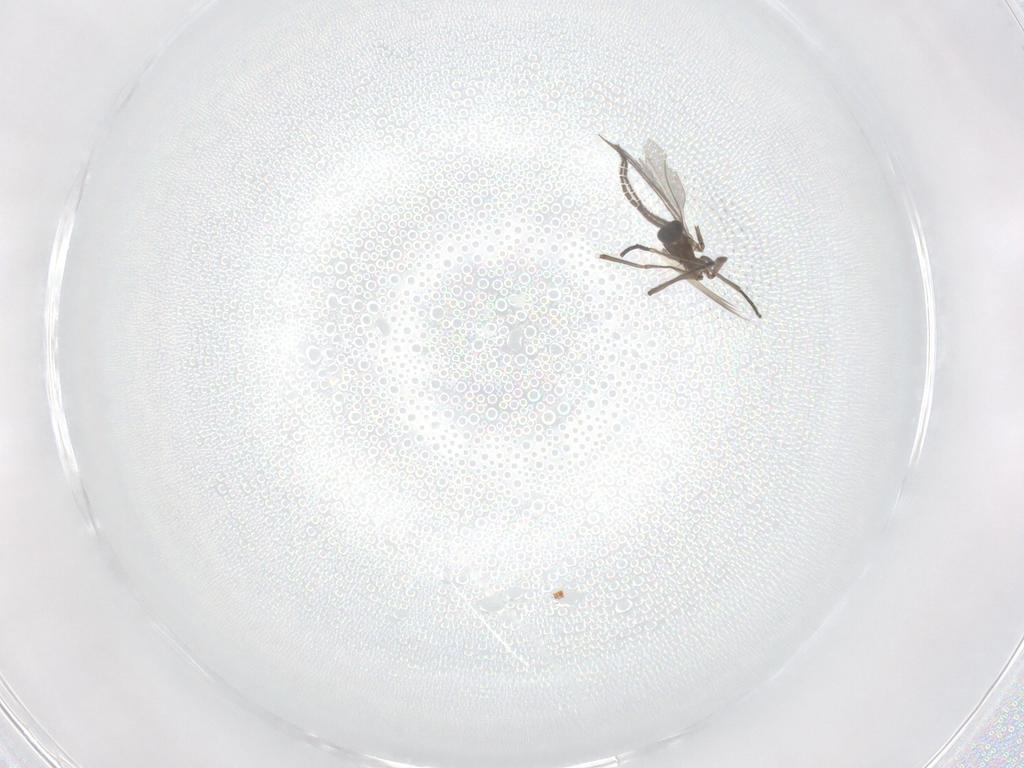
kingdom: Animalia
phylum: Arthropoda
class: Insecta
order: Diptera
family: Sciaridae
